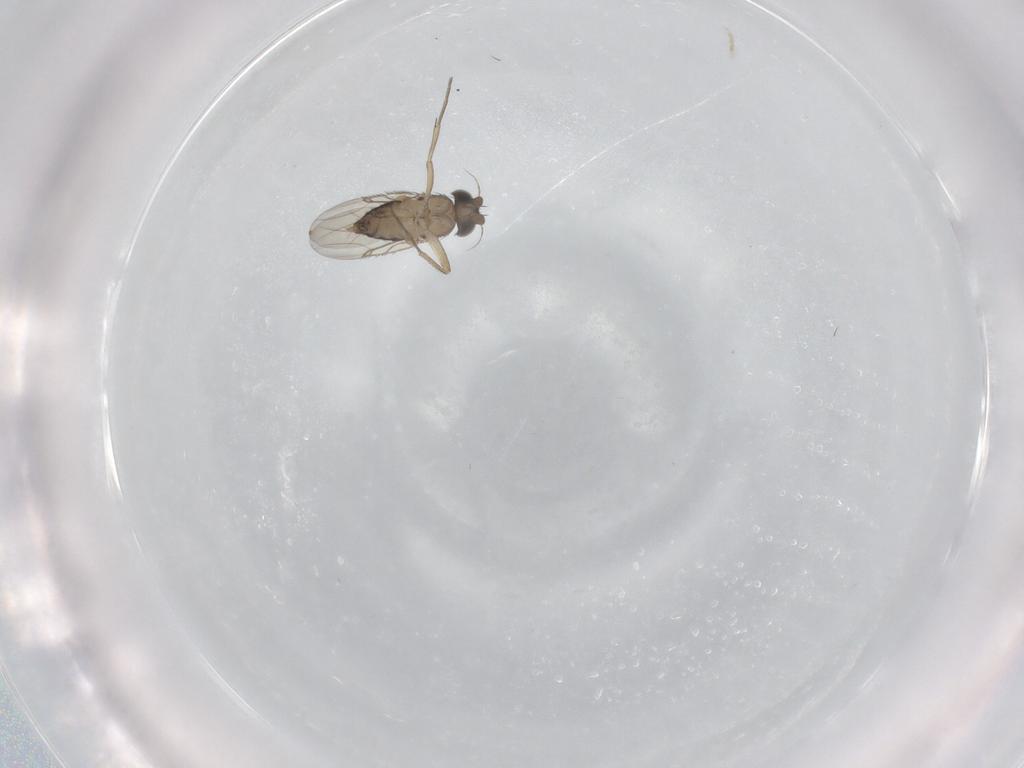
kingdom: Animalia
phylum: Arthropoda
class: Insecta
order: Diptera
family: Phoridae
